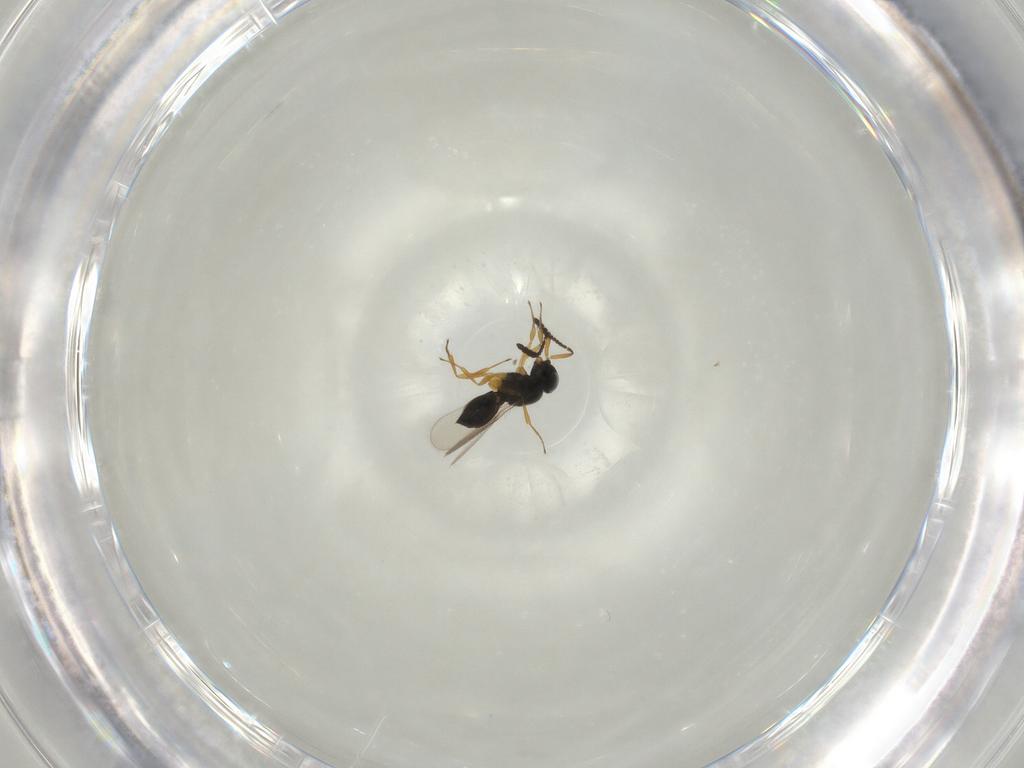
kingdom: Animalia
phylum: Arthropoda
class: Insecta
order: Hymenoptera
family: Scelionidae
